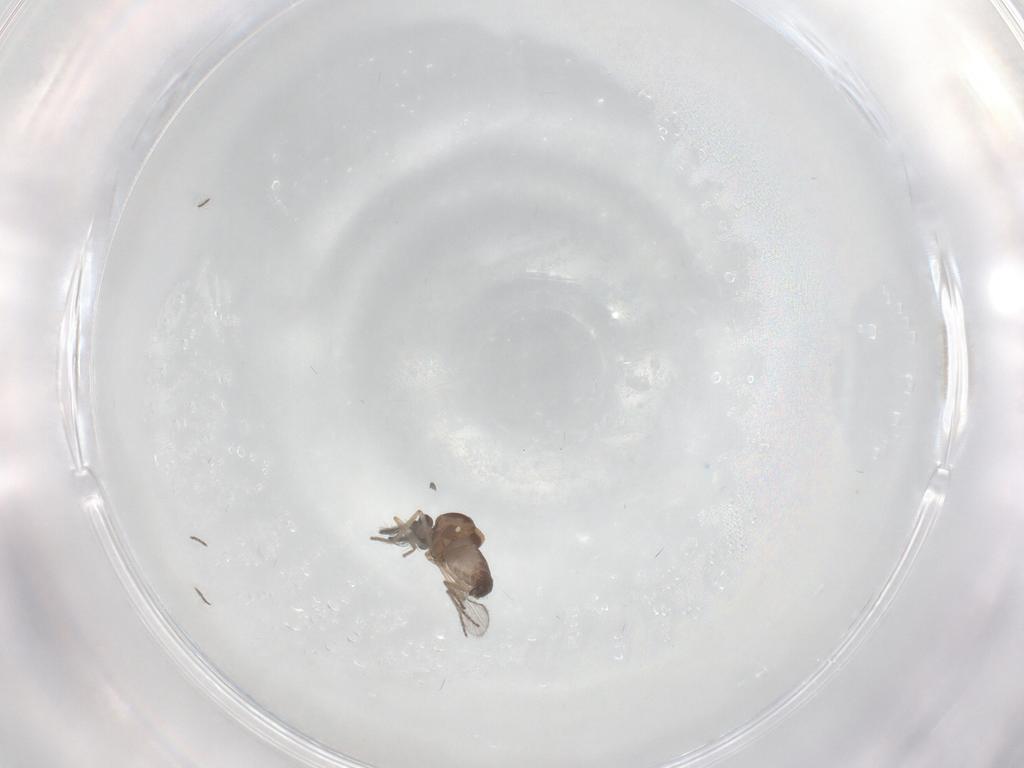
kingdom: Animalia
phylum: Arthropoda
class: Insecta
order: Diptera
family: Ceratopogonidae
